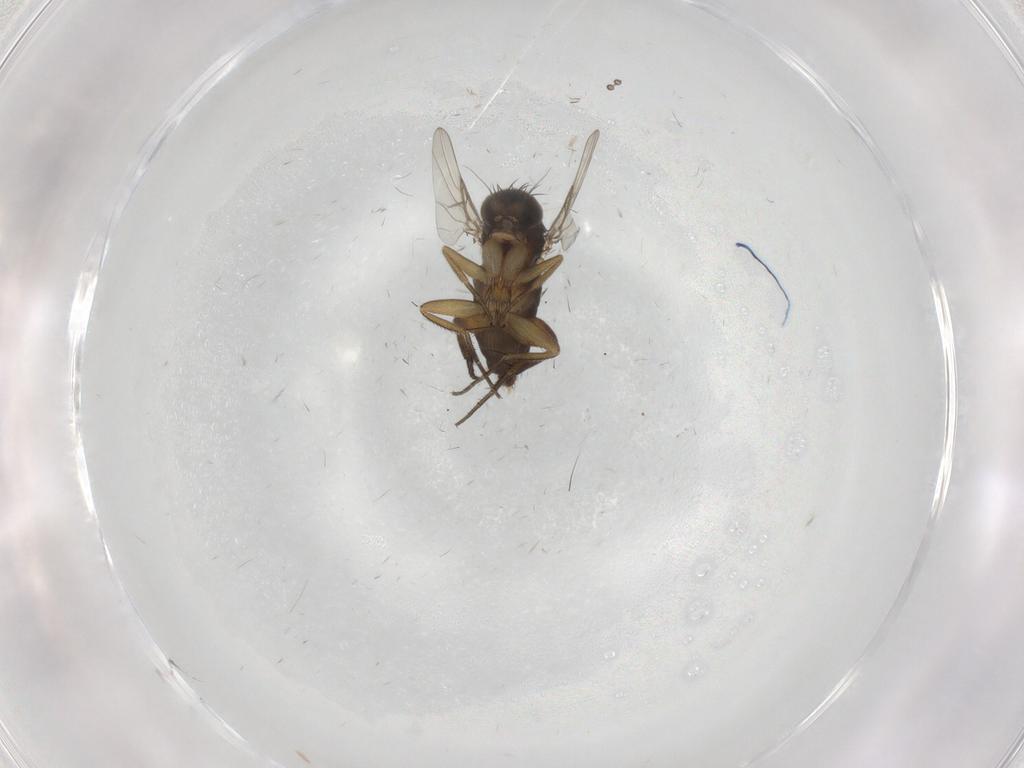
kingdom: Animalia
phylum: Arthropoda
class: Insecta
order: Diptera
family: Phoridae
